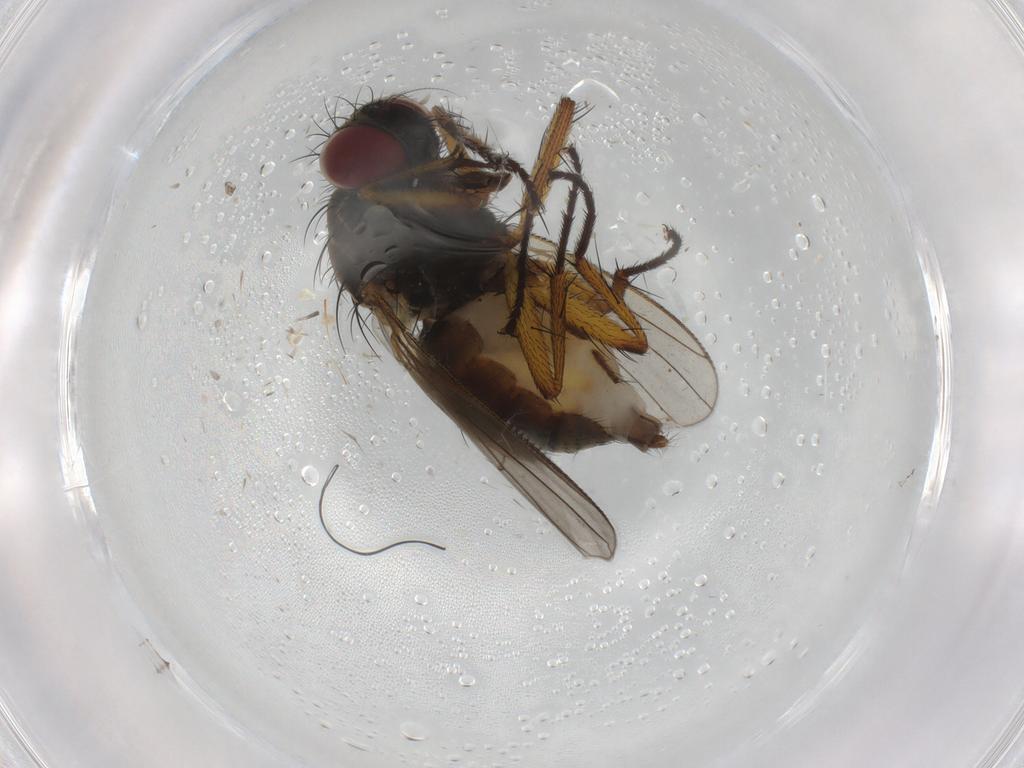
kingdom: Animalia
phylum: Arthropoda
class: Insecta
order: Diptera
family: Muscidae
